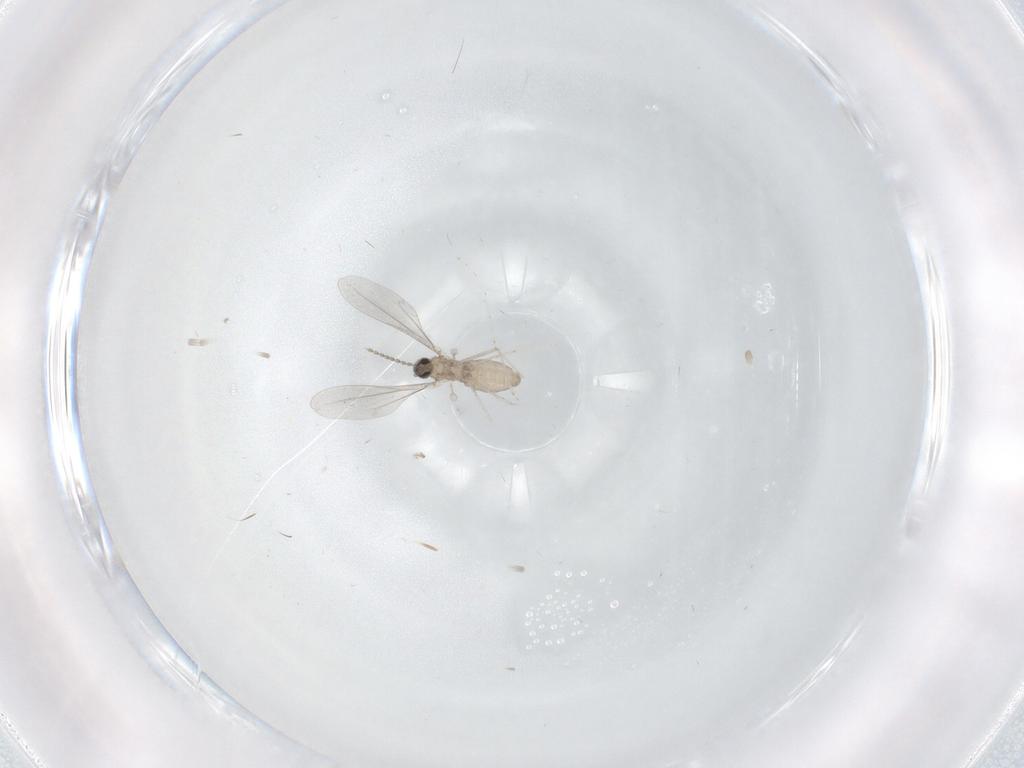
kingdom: Animalia
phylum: Arthropoda
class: Insecta
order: Diptera
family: Cecidomyiidae
